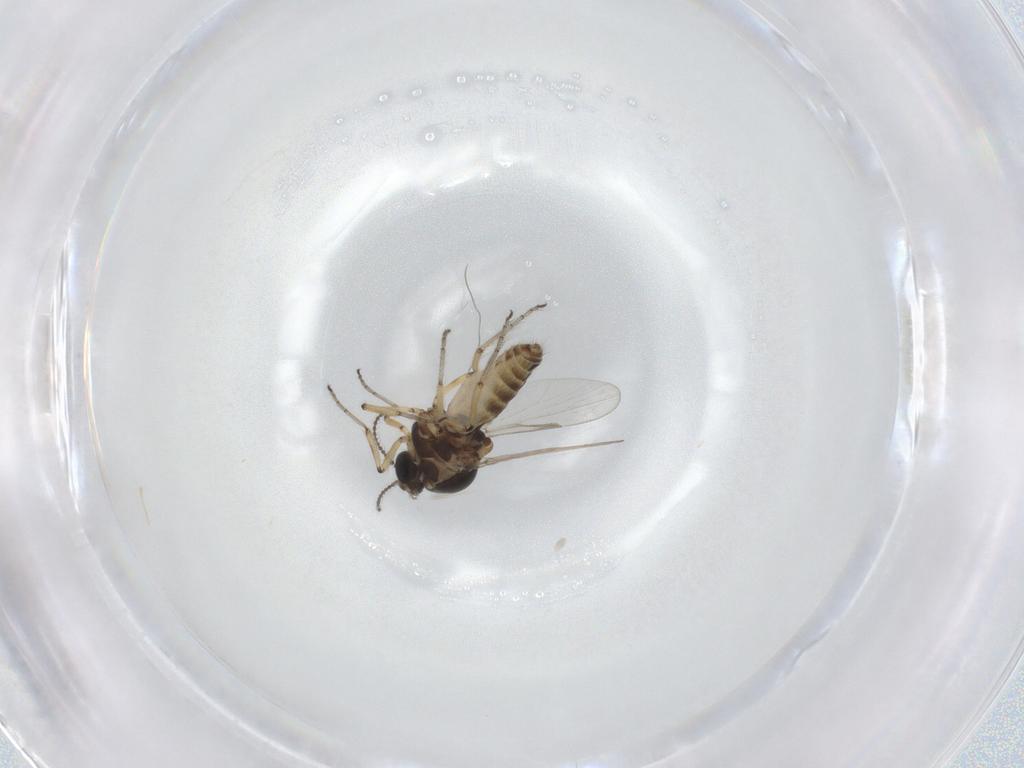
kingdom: Animalia
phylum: Arthropoda
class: Insecta
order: Diptera
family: Ceratopogonidae
